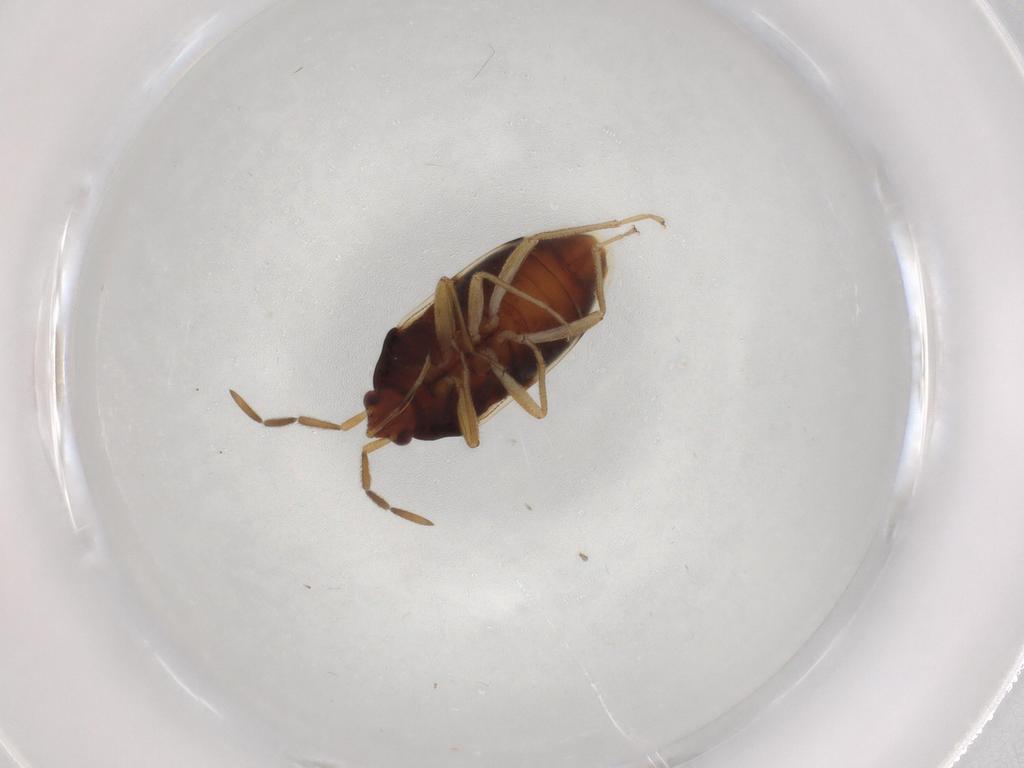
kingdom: Animalia
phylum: Arthropoda
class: Insecta
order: Hemiptera
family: Rhyparochromidae
